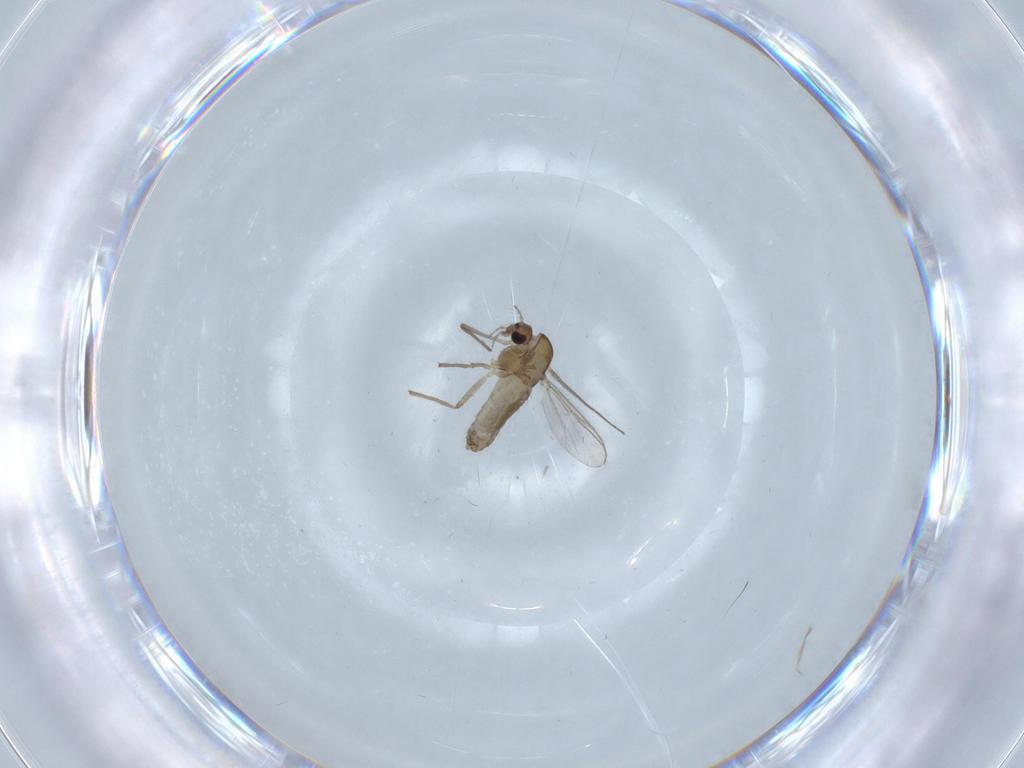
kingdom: Animalia
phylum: Arthropoda
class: Insecta
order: Diptera
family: Chironomidae
